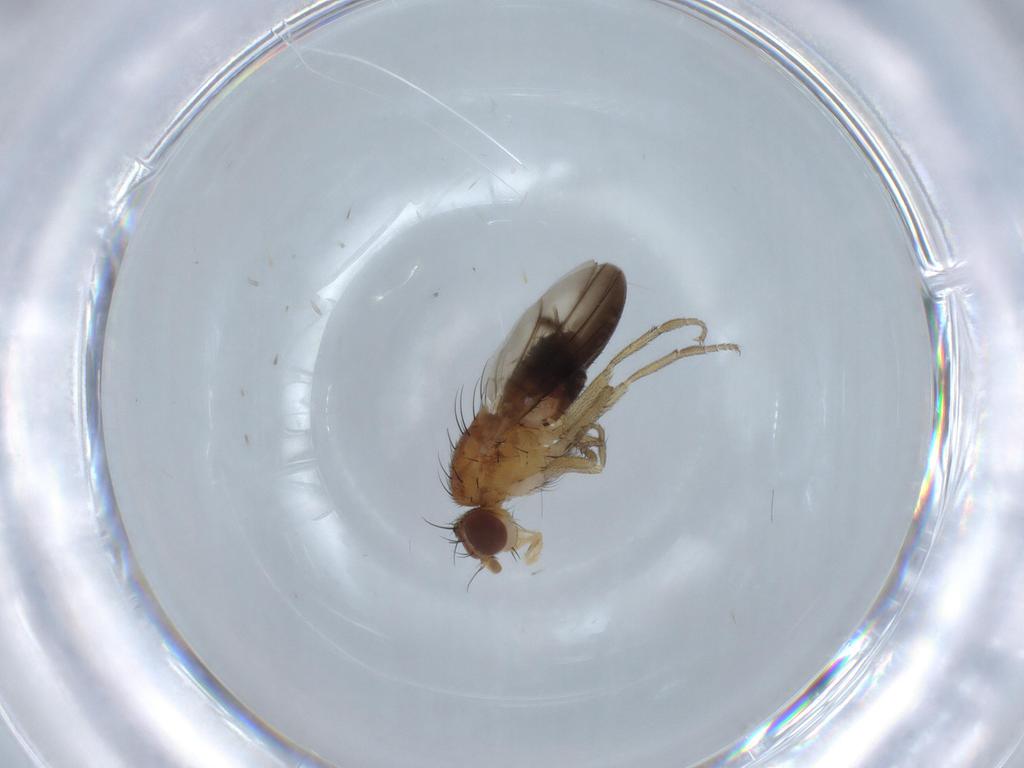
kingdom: Animalia
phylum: Arthropoda
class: Insecta
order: Diptera
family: Heleomyzidae
